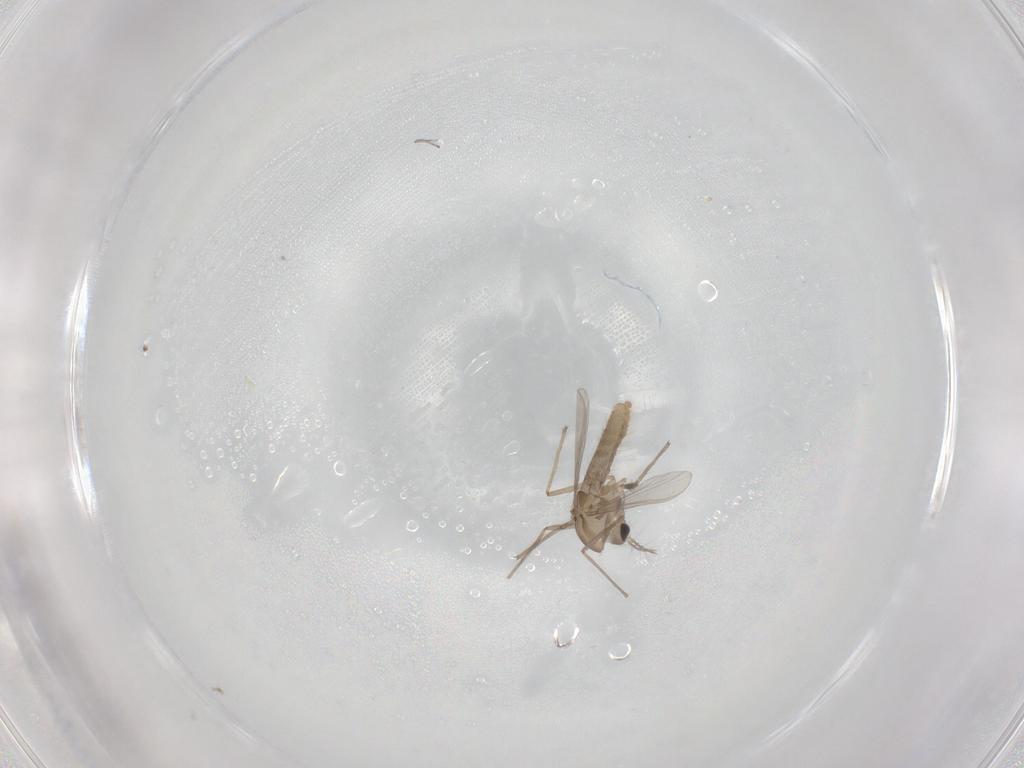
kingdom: Animalia
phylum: Arthropoda
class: Insecta
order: Diptera
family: Chironomidae
